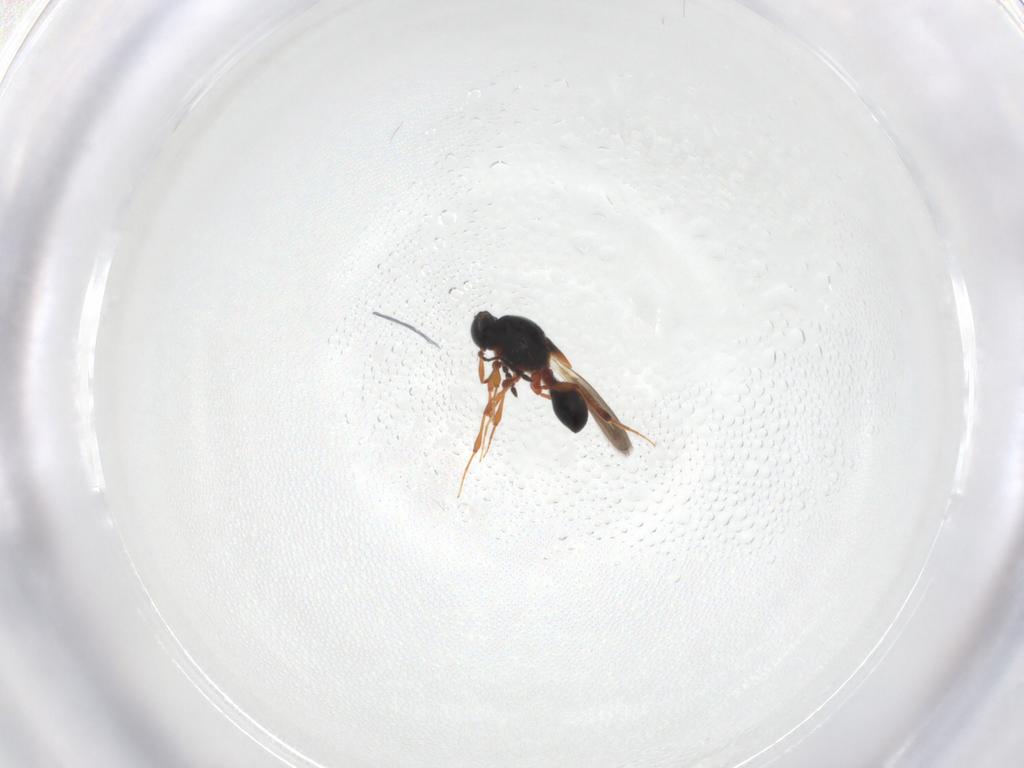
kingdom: Animalia
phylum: Arthropoda
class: Insecta
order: Hymenoptera
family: Platygastridae
